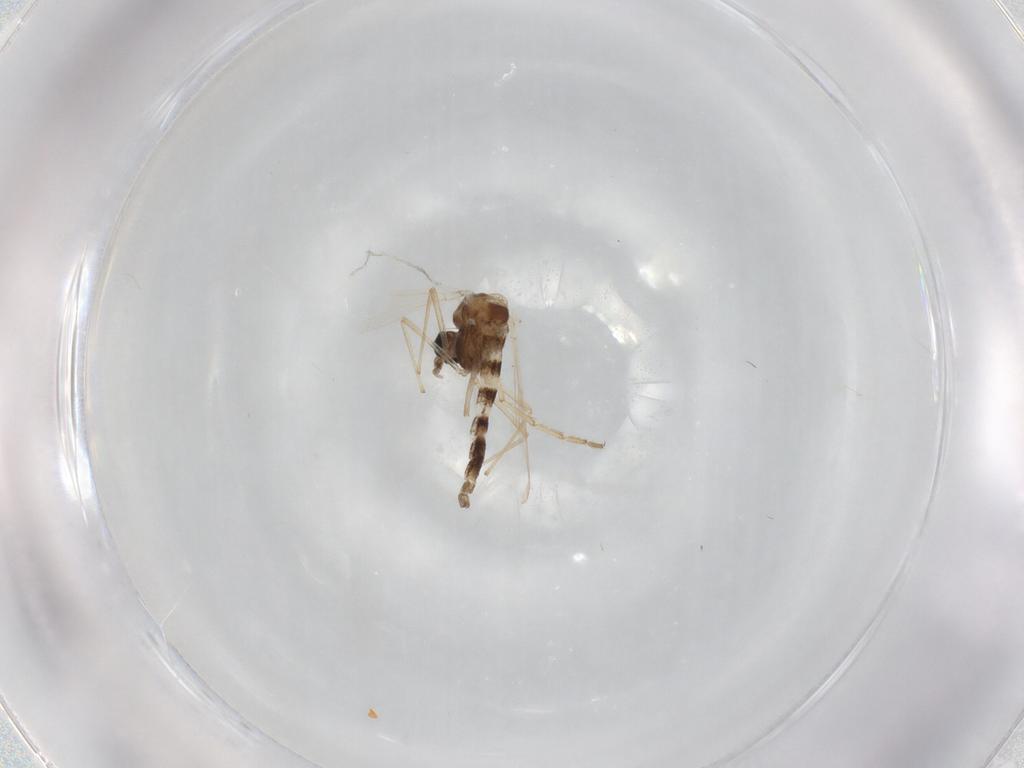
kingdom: Animalia
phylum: Arthropoda
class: Insecta
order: Diptera
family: Chironomidae
